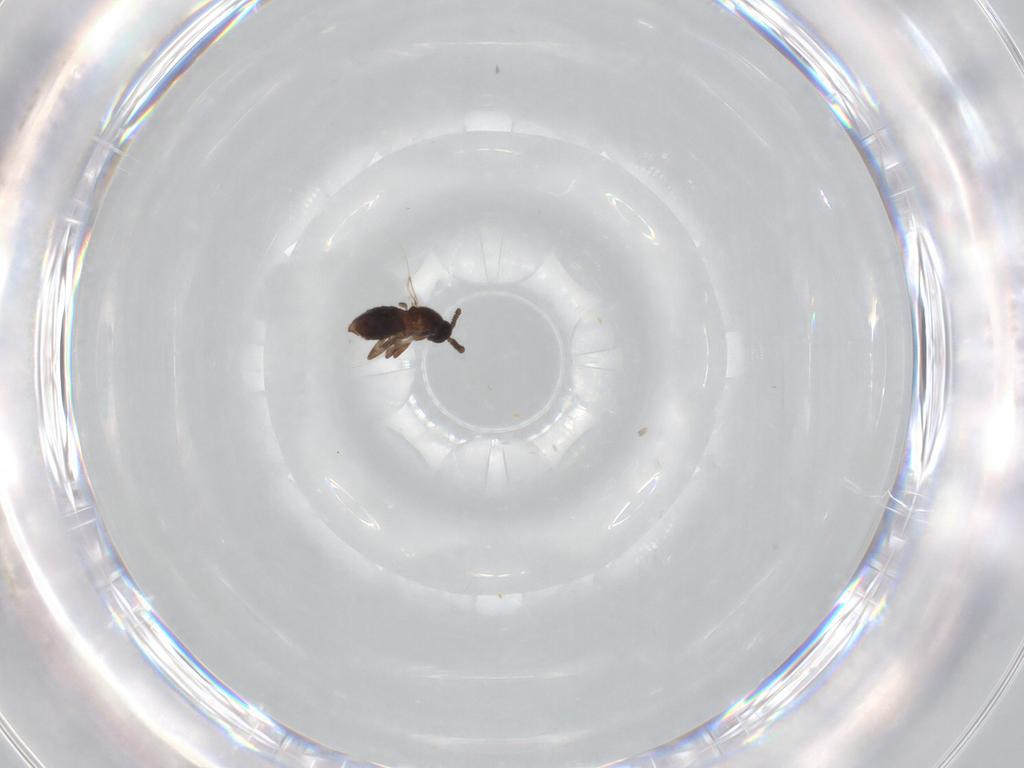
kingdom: Animalia
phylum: Arthropoda
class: Insecta
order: Diptera
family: Scatopsidae
